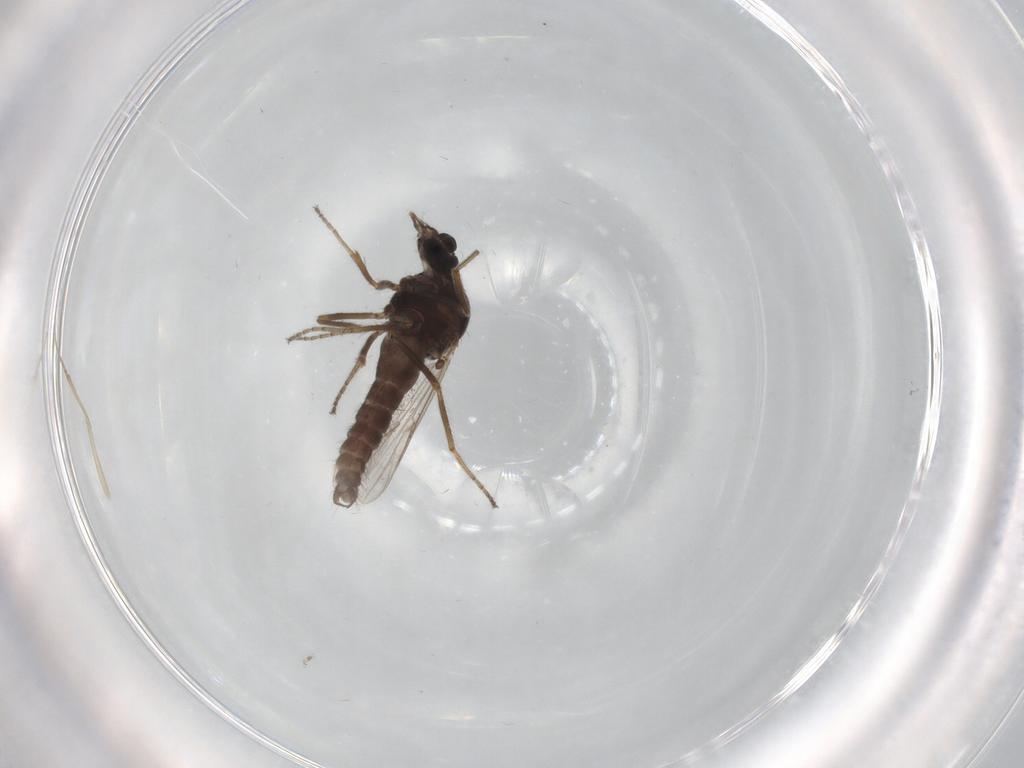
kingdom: Animalia
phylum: Arthropoda
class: Insecta
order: Diptera
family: Ceratopogonidae
